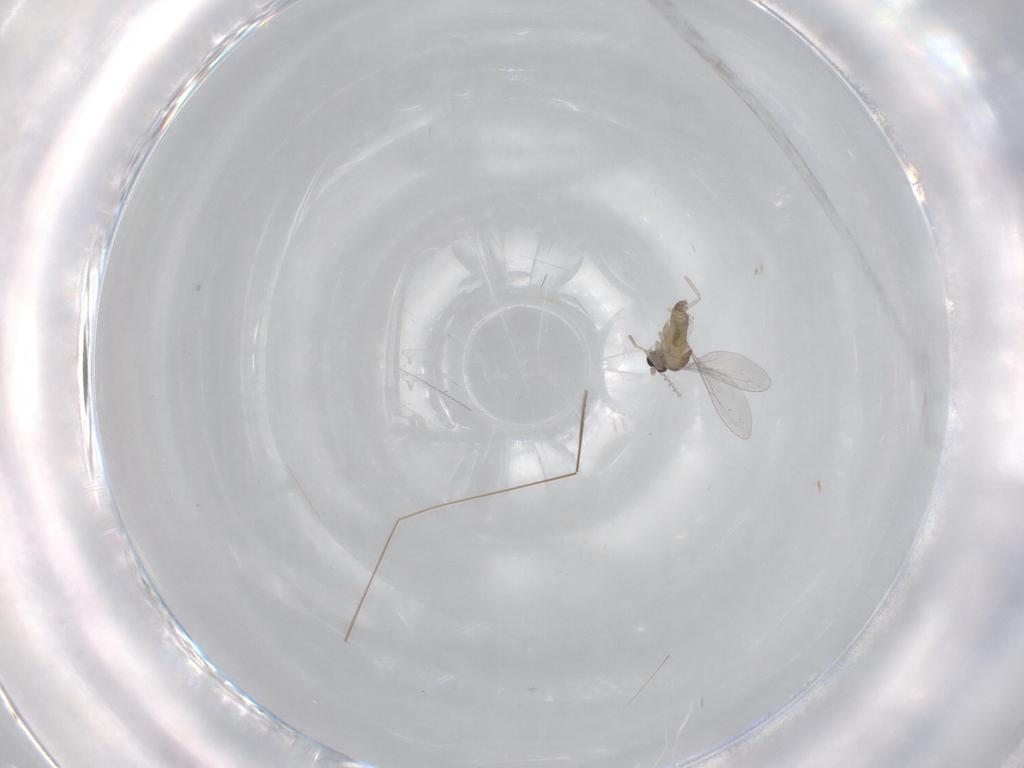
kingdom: Animalia
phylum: Arthropoda
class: Insecta
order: Diptera
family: Sciaridae
